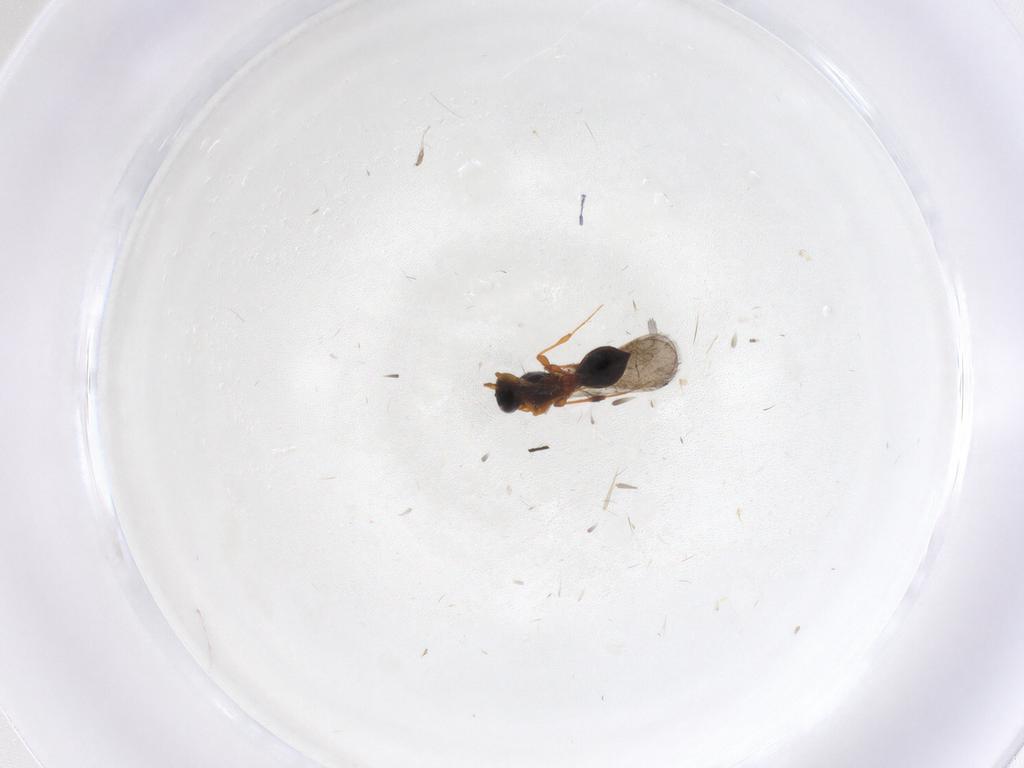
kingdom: Animalia
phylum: Arthropoda
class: Insecta
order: Hymenoptera
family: Platygastridae
